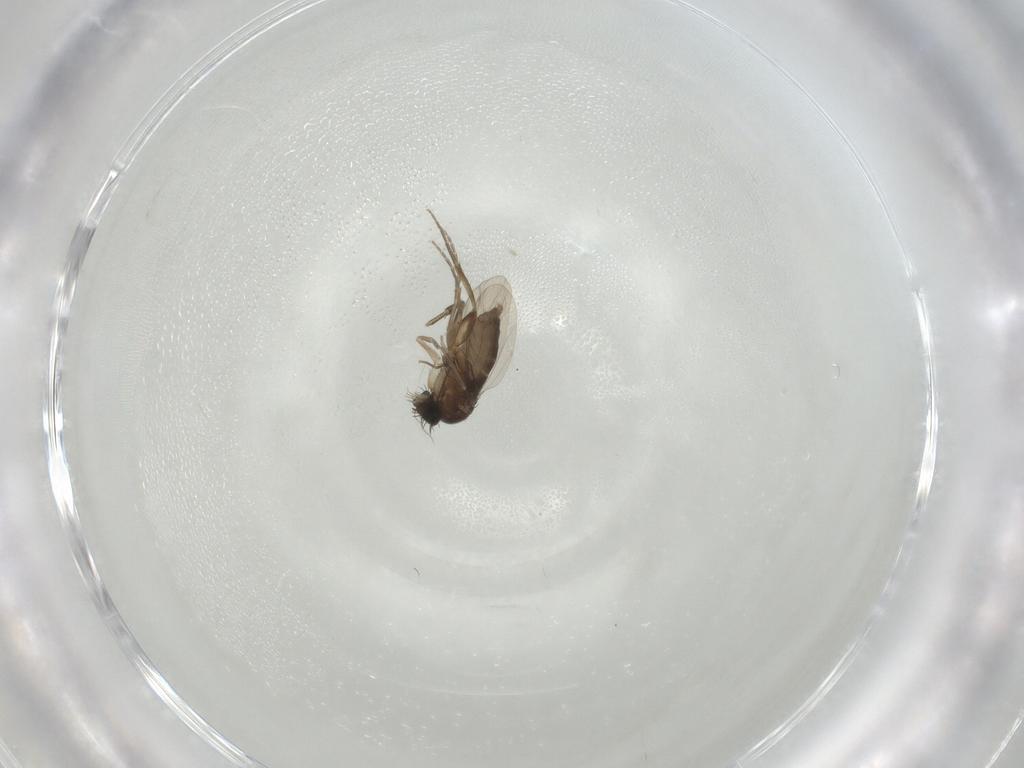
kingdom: Animalia
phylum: Arthropoda
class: Insecta
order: Diptera
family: Phoridae
